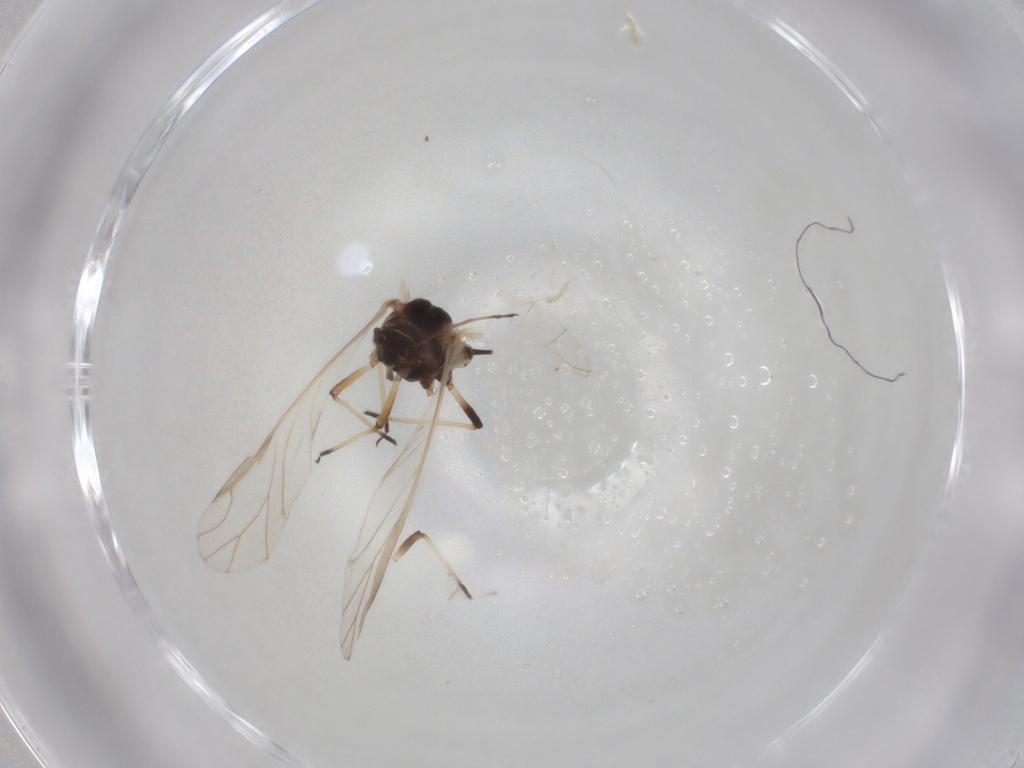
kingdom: Animalia
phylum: Arthropoda
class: Insecta
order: Hemiptera
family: Aphididae
